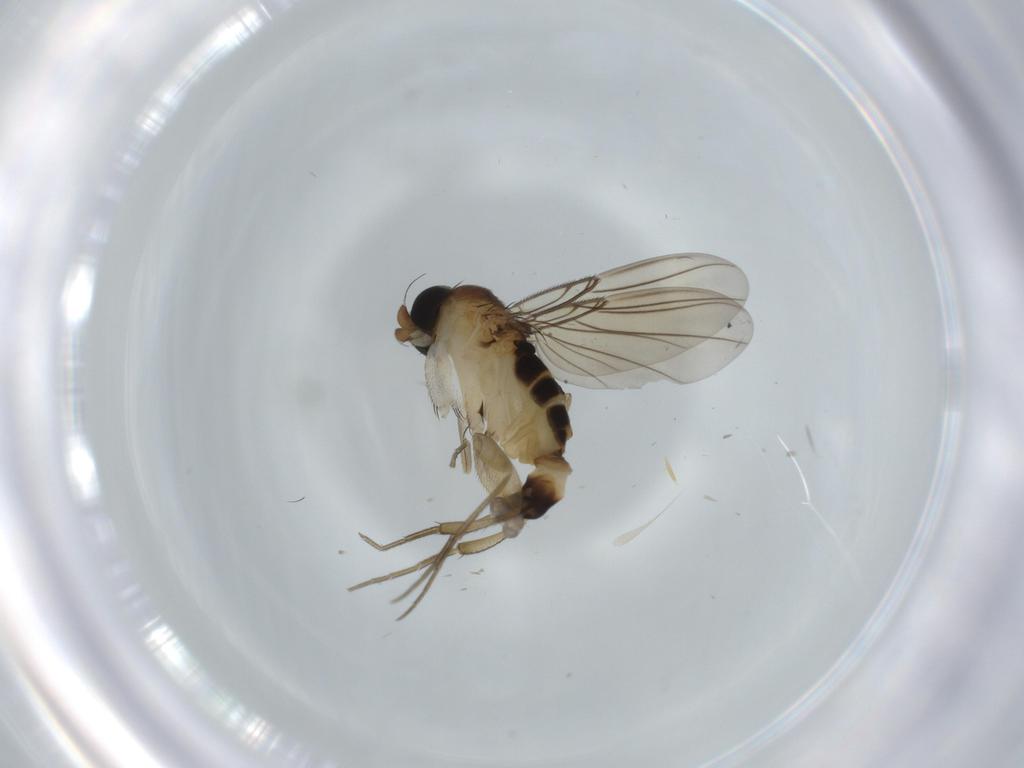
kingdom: Animalia
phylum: Arthropoda
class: Insecta
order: Diptera
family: Phoridae
